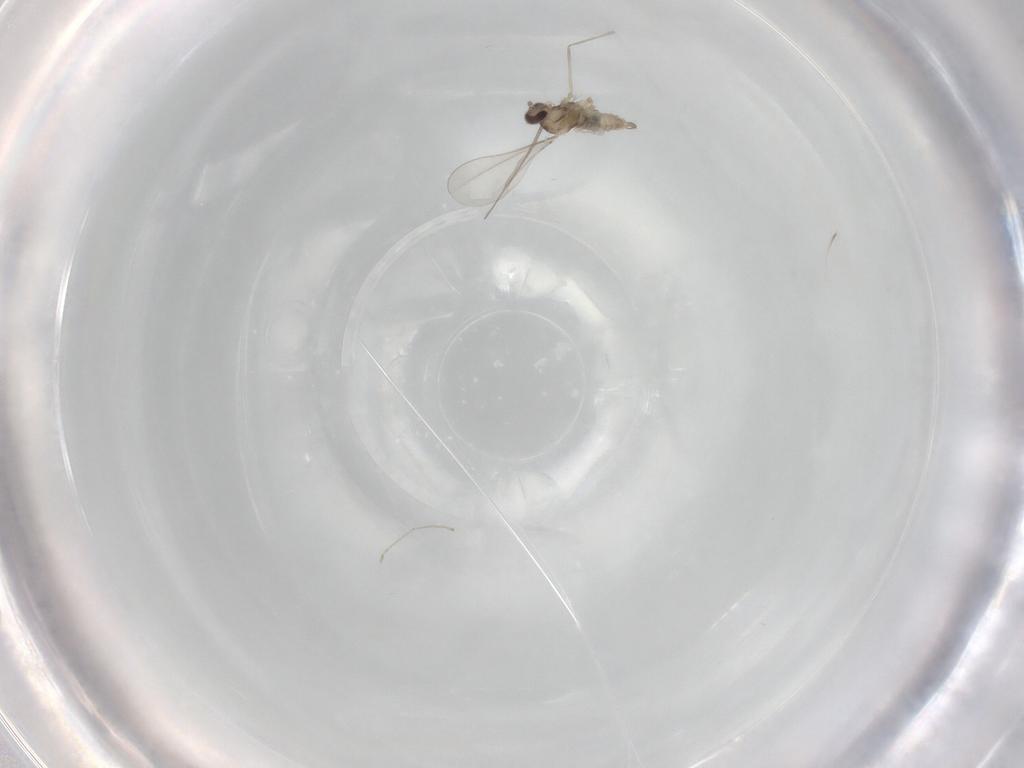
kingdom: Animalia
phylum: Arthropoda
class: Insecta
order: Diptera
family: Cecidomyiidae
